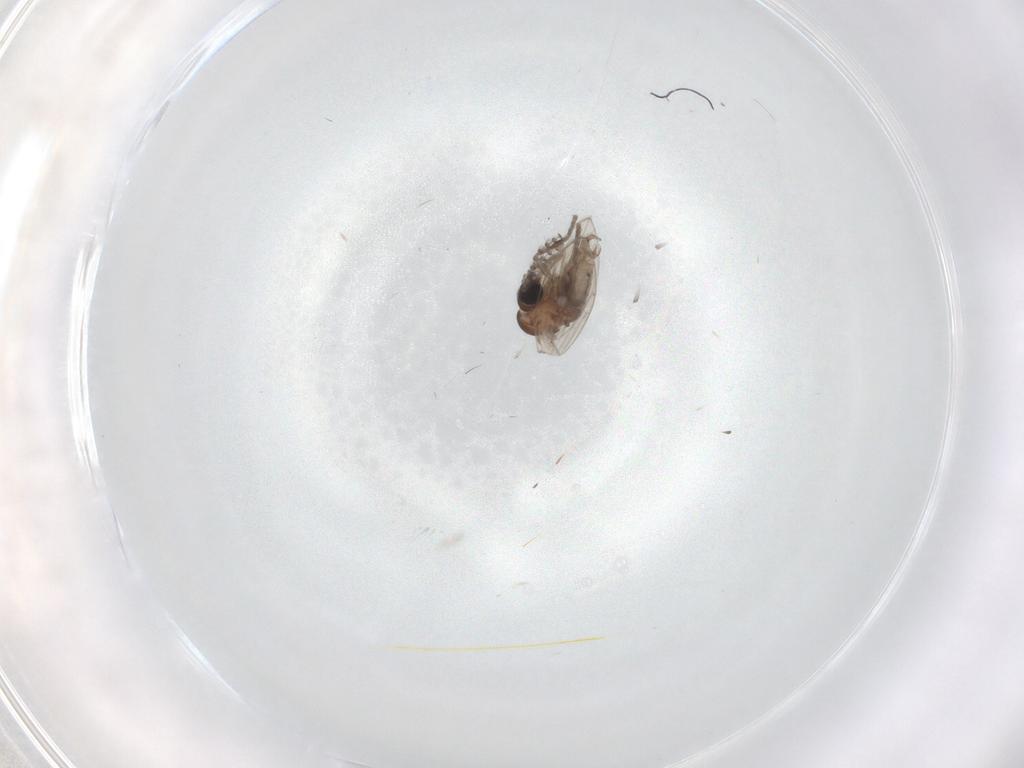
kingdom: Animalia
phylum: Arthropoda
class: Insecta
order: Diptera
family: Psychodidae
